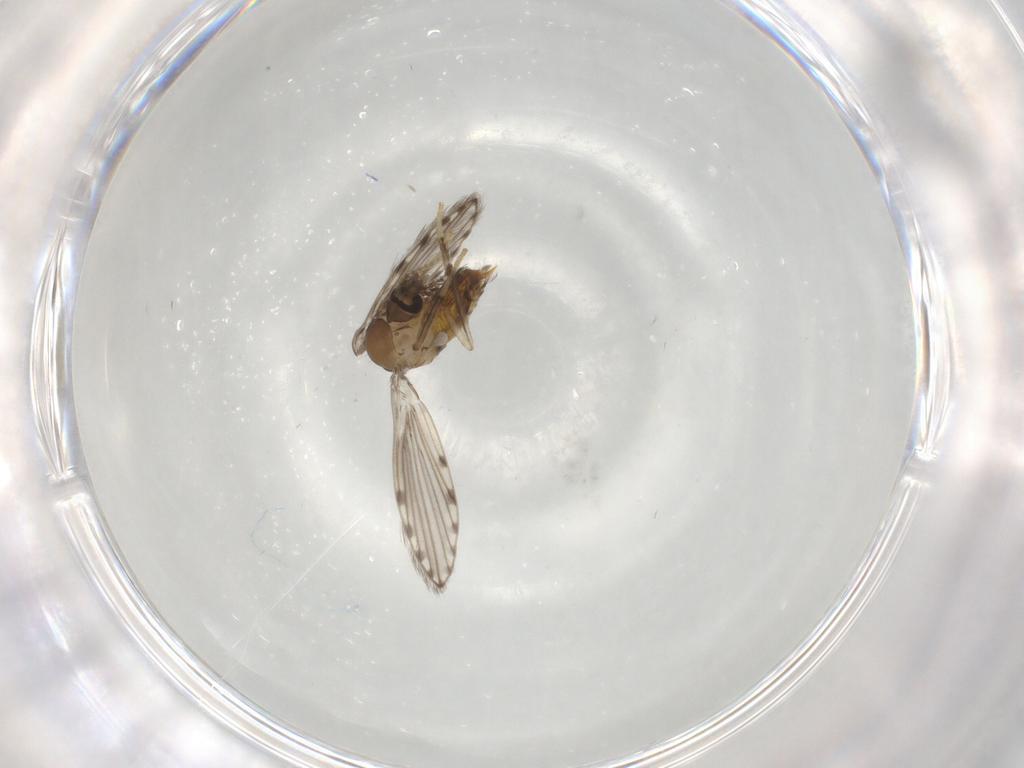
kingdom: Animalia
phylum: Arthropoda
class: Insecta
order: Diptera
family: Psychodidae
